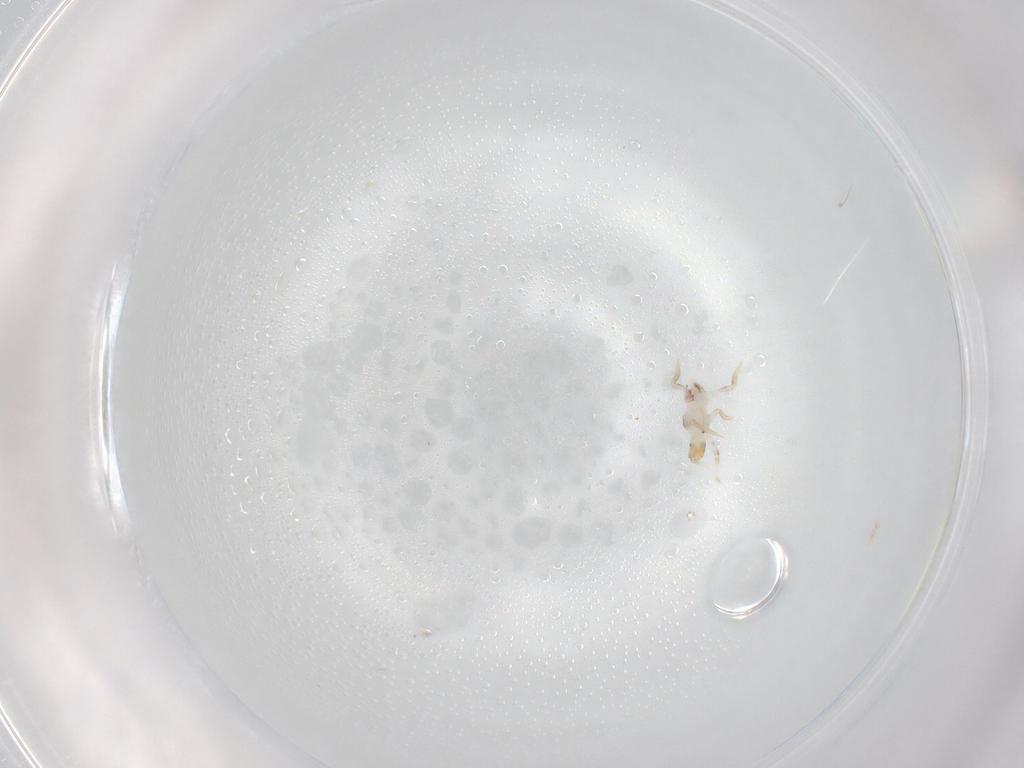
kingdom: Animalia
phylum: Arthropoda
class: Insecta
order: Hemiptera
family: Delphacidae
